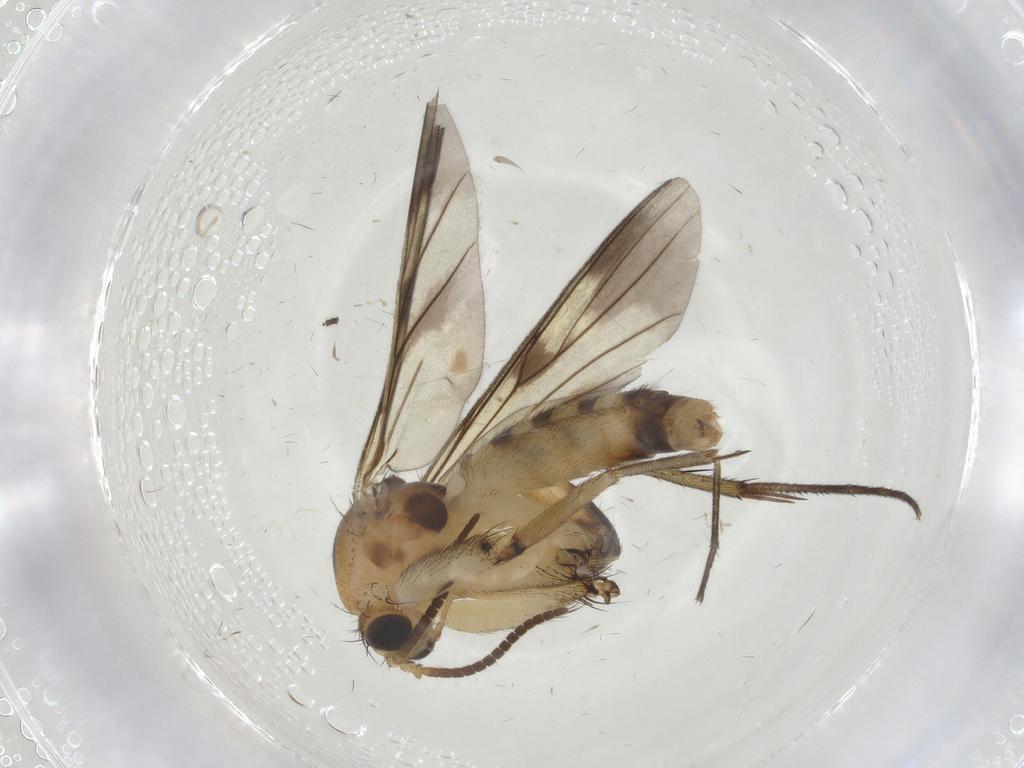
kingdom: Animalia
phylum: Arthropoda
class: Insecta
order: Diptera
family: Mycetophilidae
